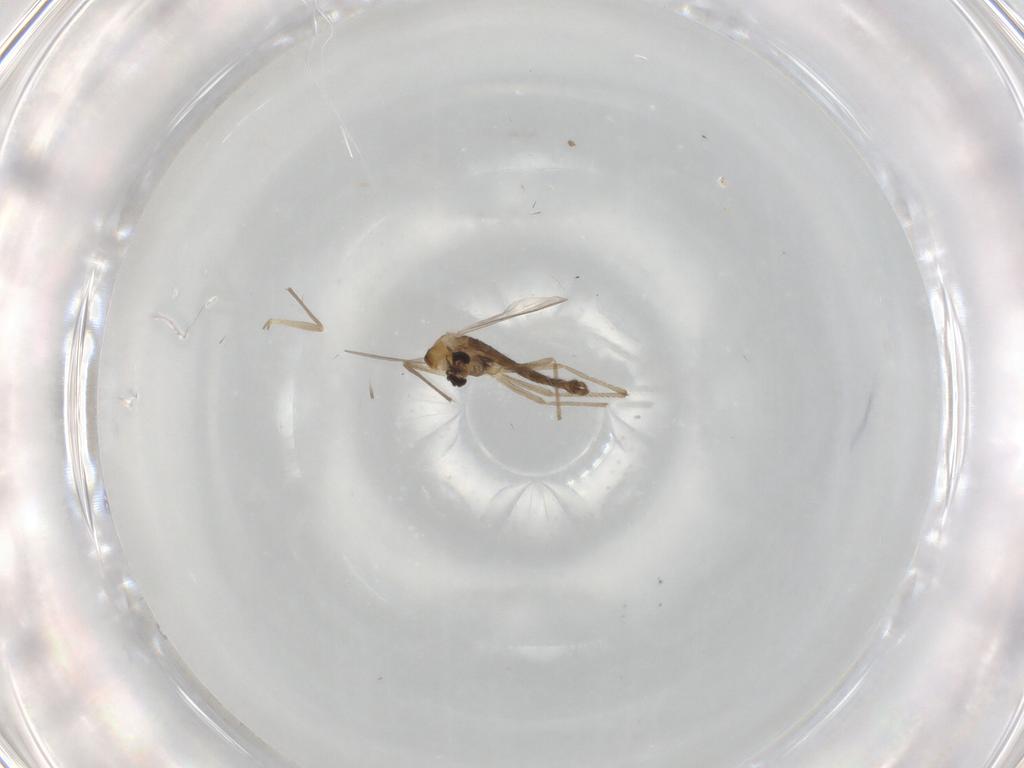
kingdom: Animalia
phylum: Arthropoda
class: Insecta
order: Diptera
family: Chironomidae
